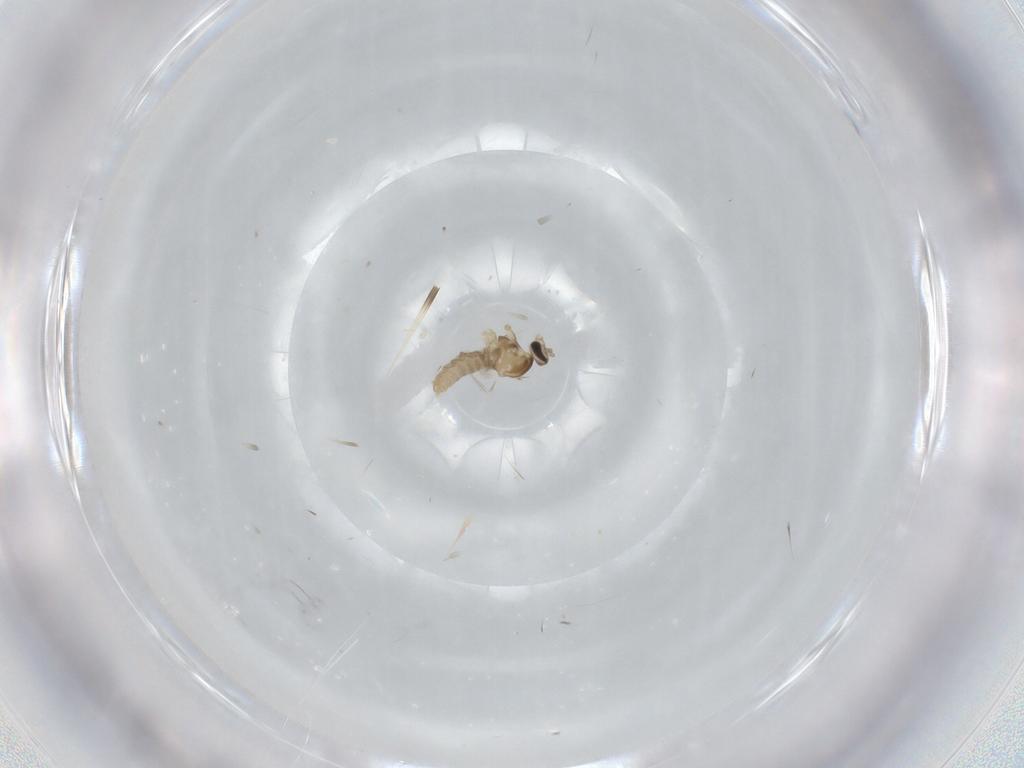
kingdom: Animalia
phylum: Arthropoda
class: Insecta
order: Diptera
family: Cecidomyiidae
